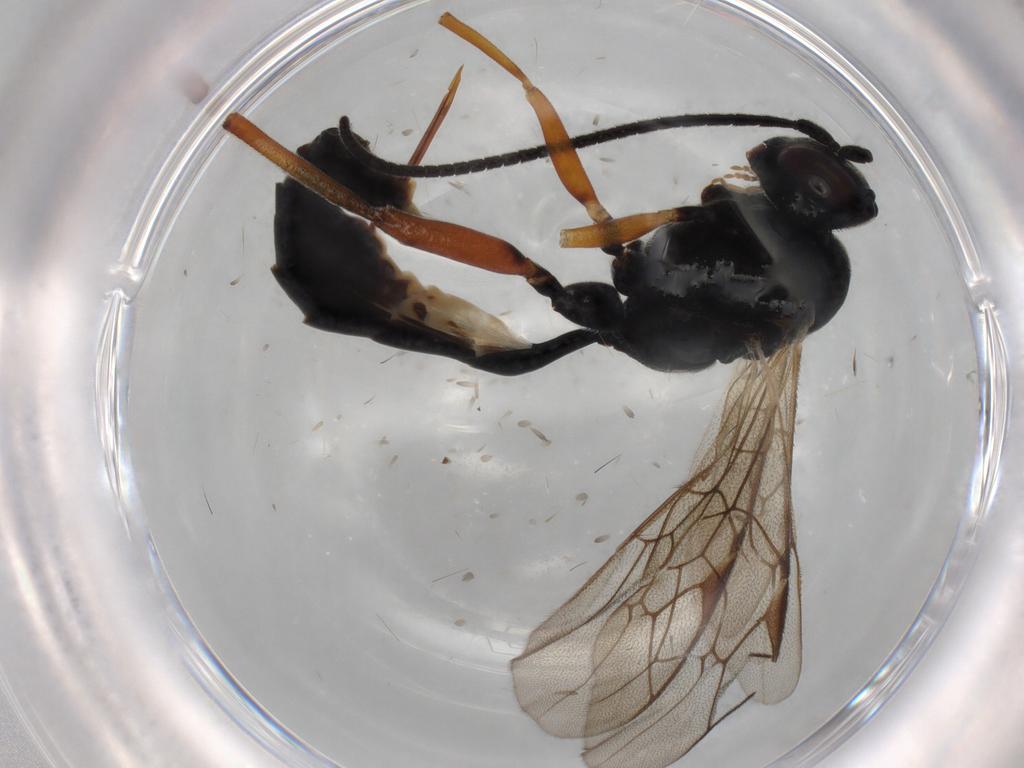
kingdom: Animalia
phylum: Arthropoda
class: Insecta
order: Hymenoptera
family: Ichneumonidae
